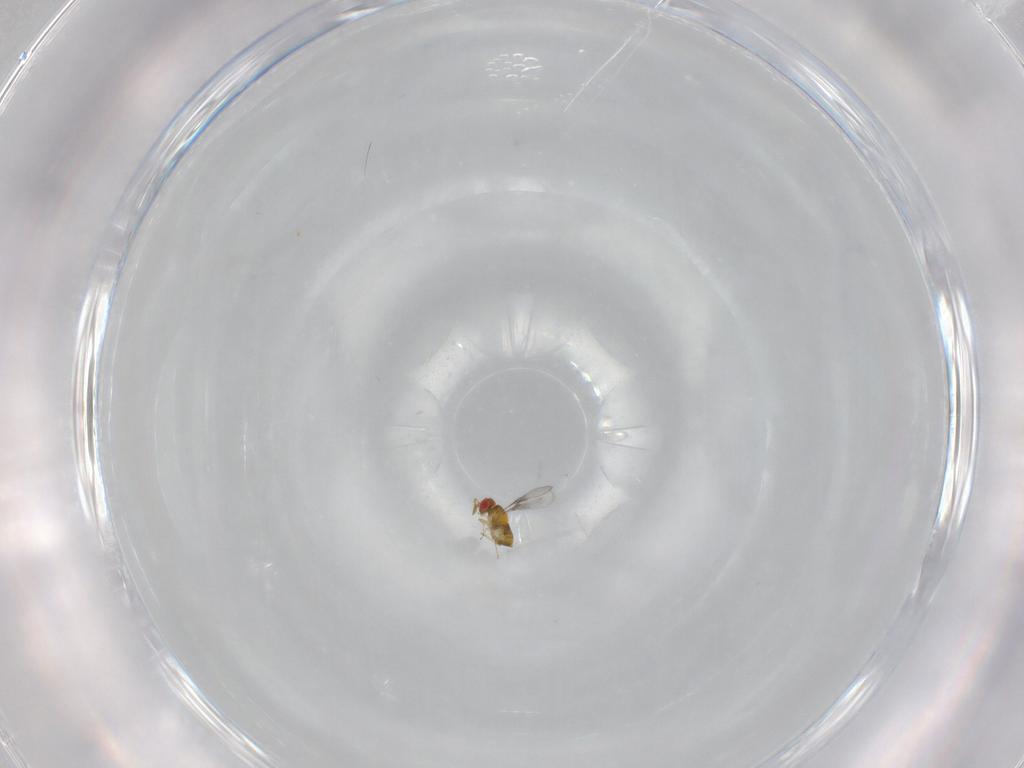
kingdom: Animalia
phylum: Arthropoda
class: Insecta
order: Hymenoptera
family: Trichogrammatidae
